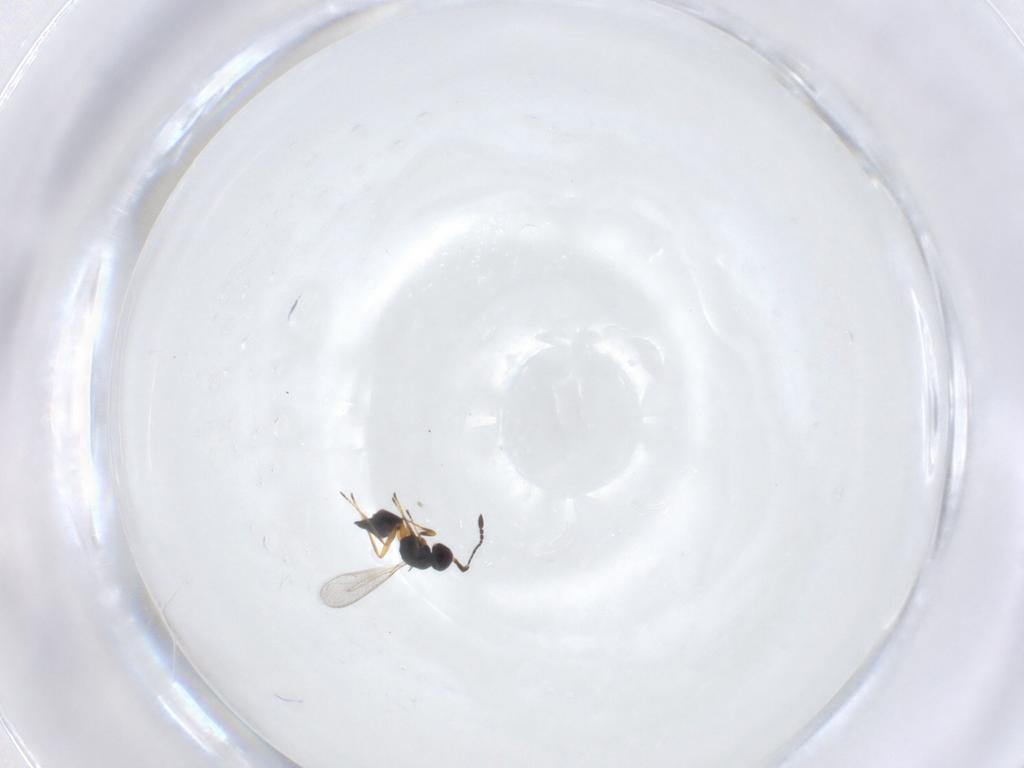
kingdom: Animalia
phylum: Arthropoda
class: Insecta
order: Hymenoptera
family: Mymaridae
